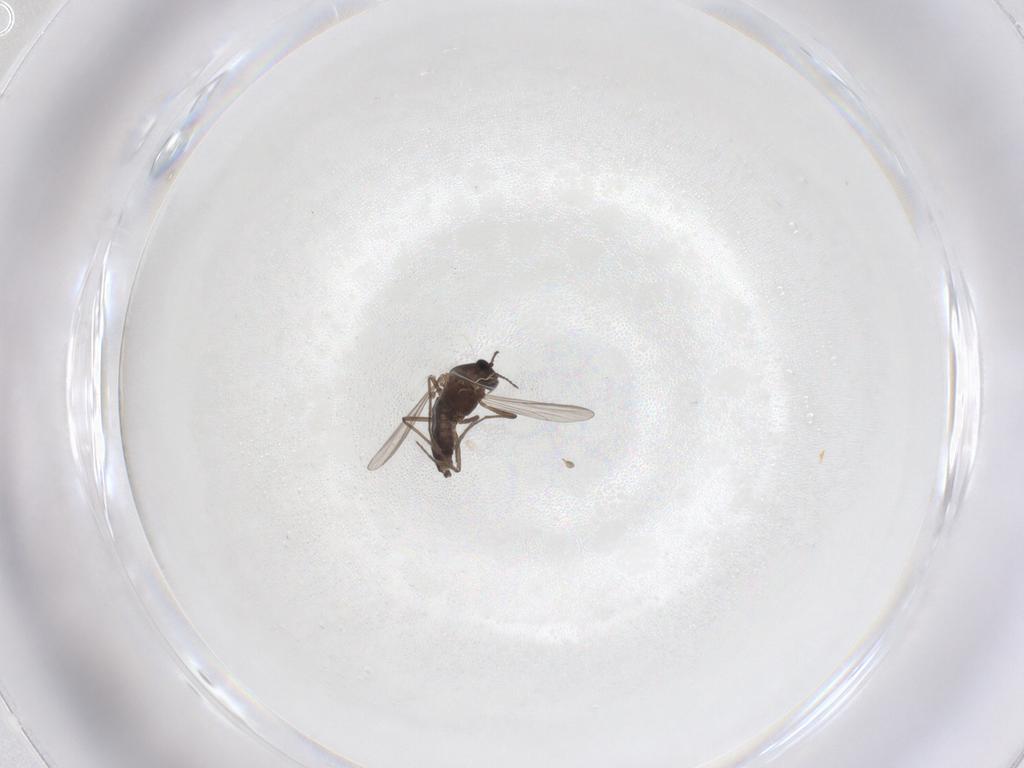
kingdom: Animalia
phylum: Arthropoda
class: Insecta
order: Diptera
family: Chironomidae
